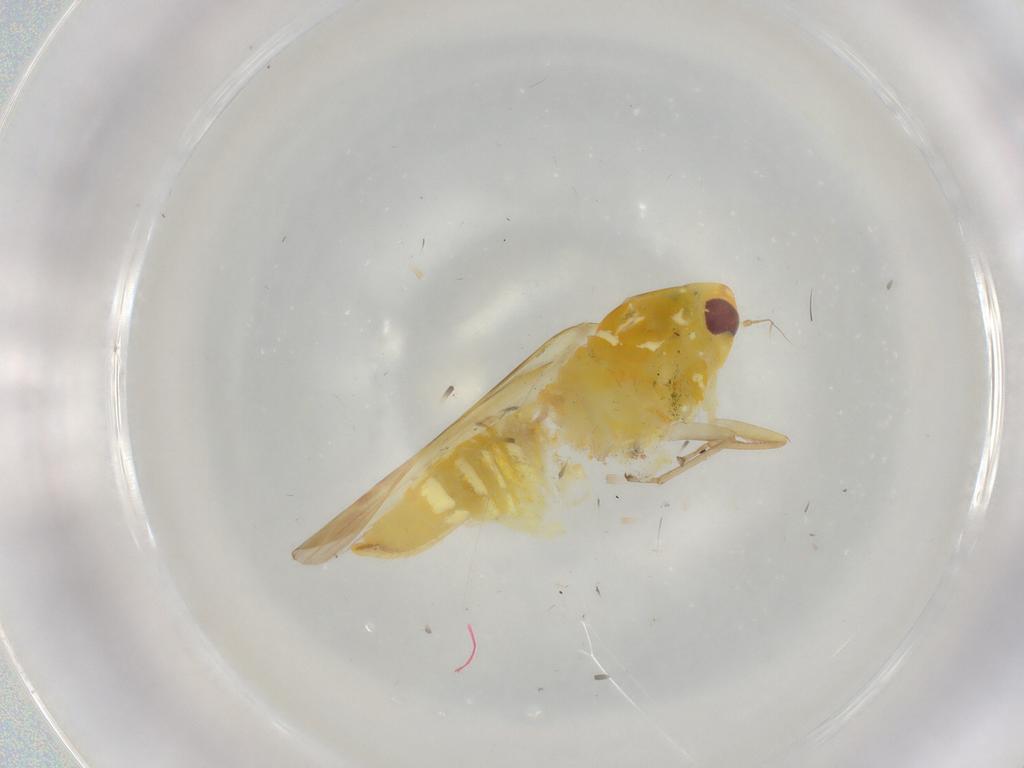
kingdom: Animalia
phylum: Arthropoda
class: Insecta
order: Hemiptera
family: Cicadellidae
